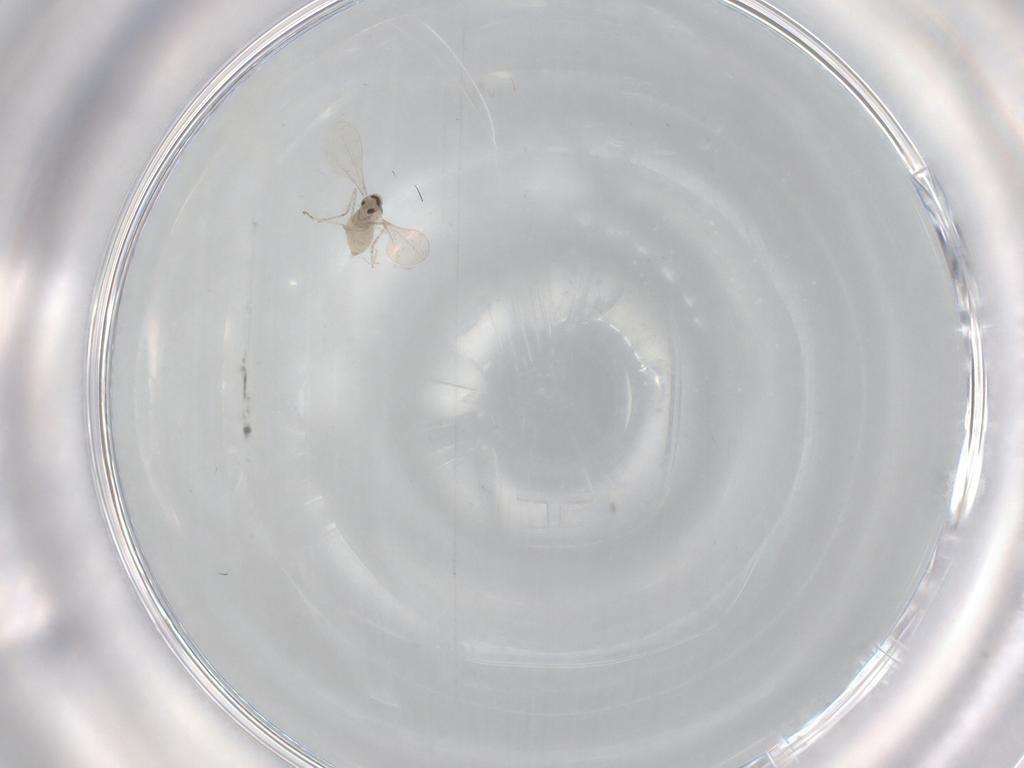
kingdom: Animalia
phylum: Arthropoda
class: Insecta
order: Diptera
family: Cecidomyiidae
